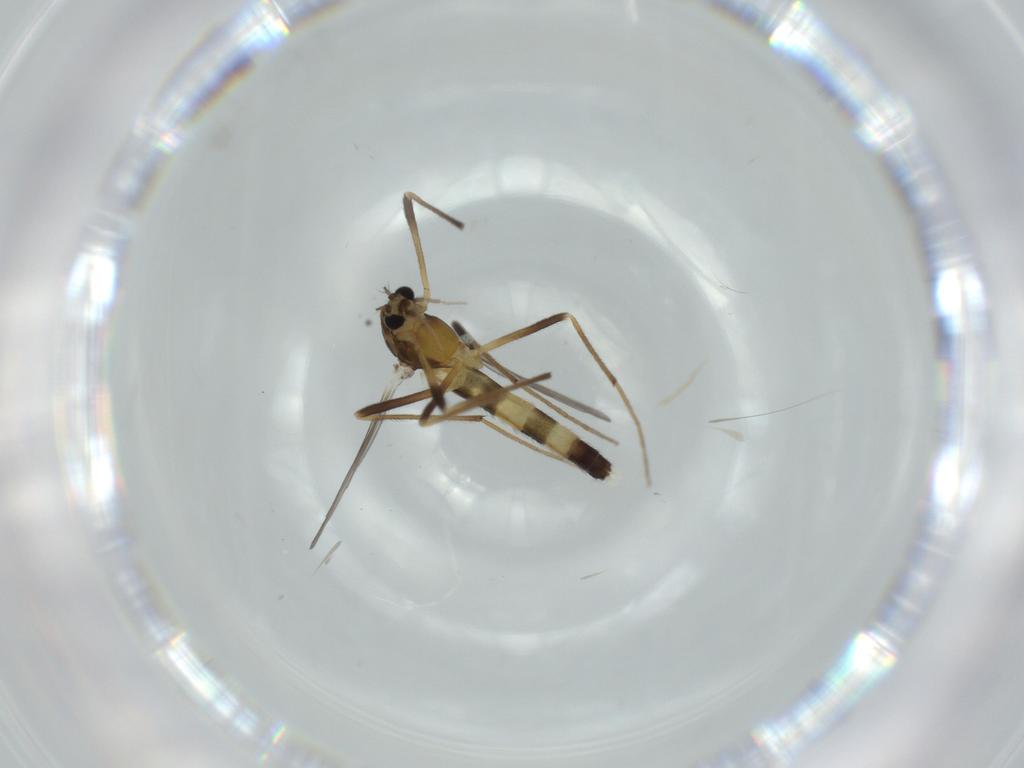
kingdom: Animalia
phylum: Arthropoda
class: Insecta
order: Diptera
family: Chironomidae
